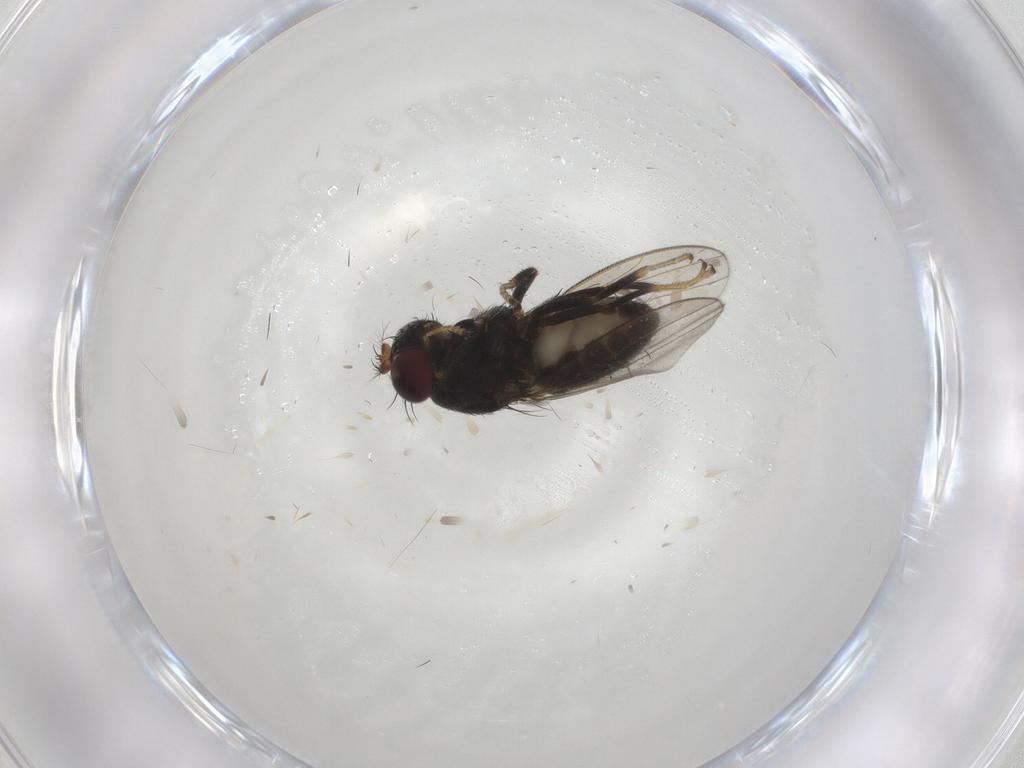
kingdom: Animalia
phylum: Arthropoda
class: Insecta
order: Diptera
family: Ephydridae
